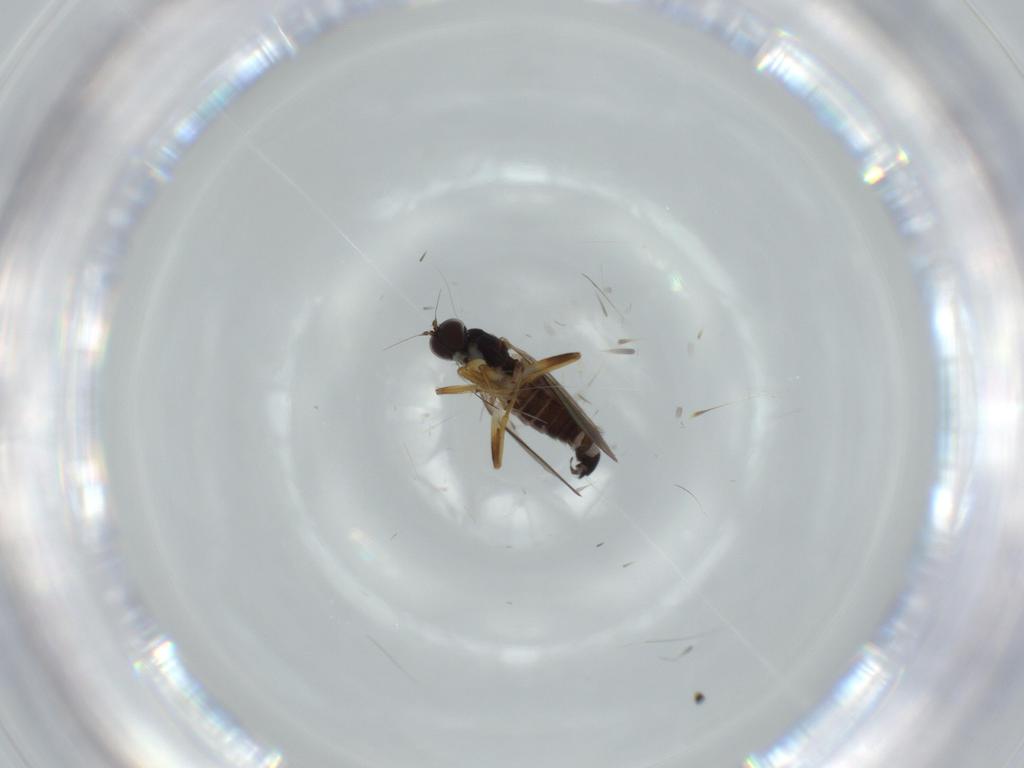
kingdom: Animalia
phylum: Arthropoda
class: Insecta
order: Diptera
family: Hybotidae
